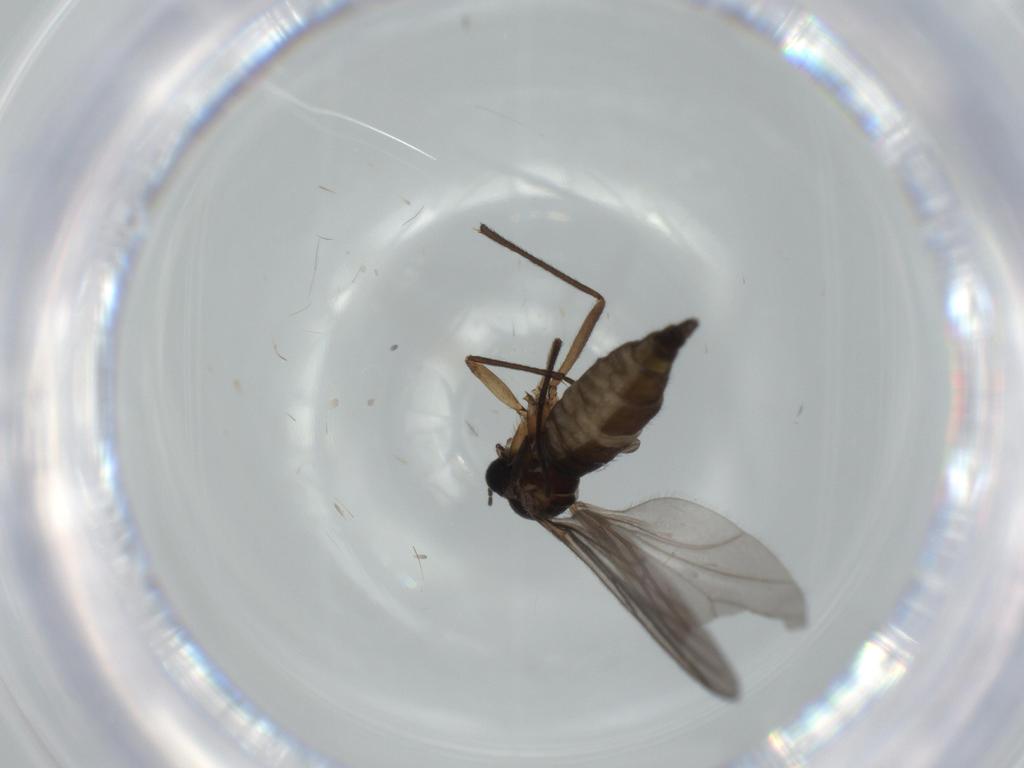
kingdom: Animalia
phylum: Arthropoda
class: Insecta
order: Diptera
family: Sciaridae
